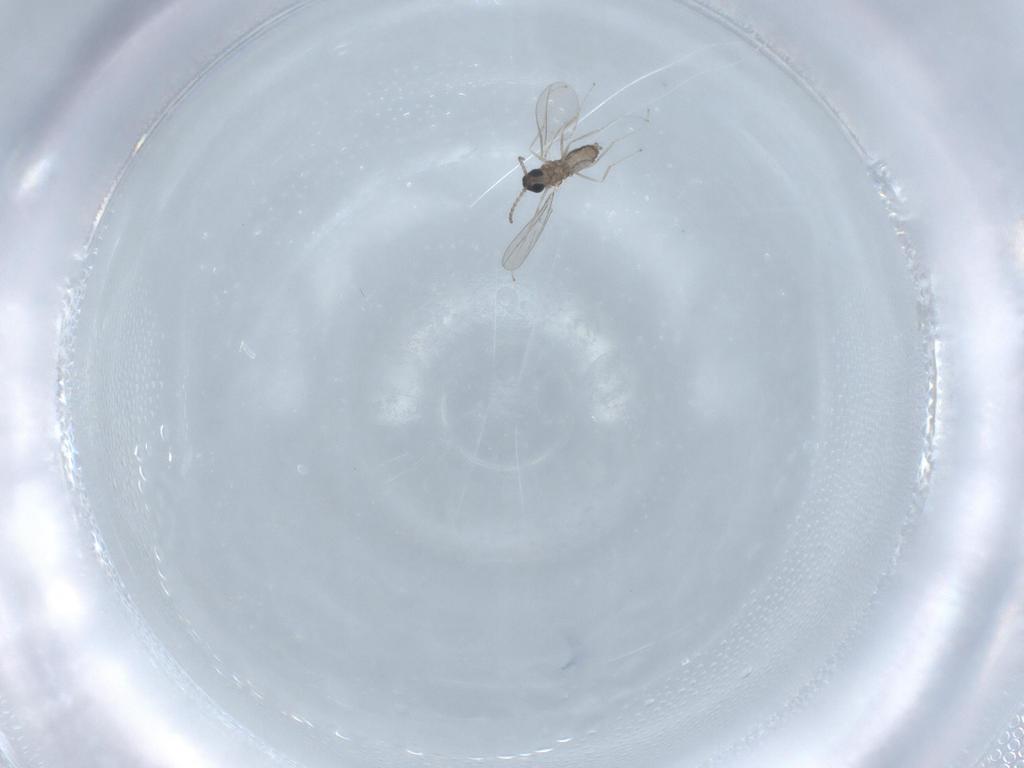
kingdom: Animalia
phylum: Arthropoda
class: Insecta
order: Diptera
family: Cecidomyiidae
